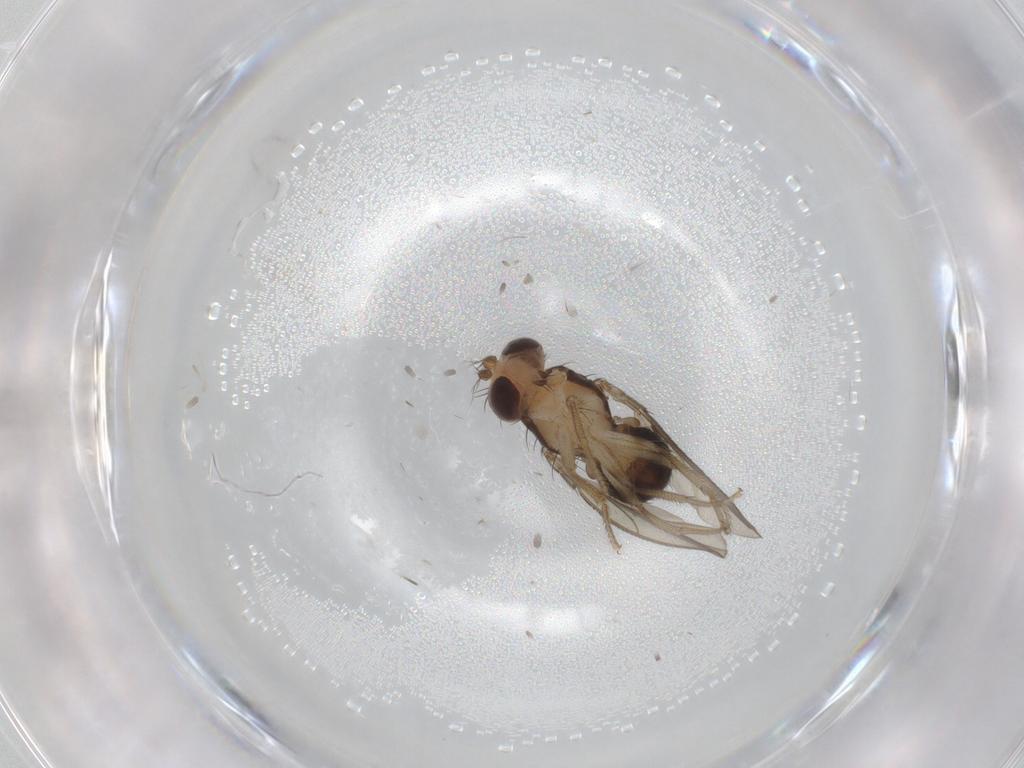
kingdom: Animalia
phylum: Arthropoda
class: Insecta
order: Diptera
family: Drosophilidae
